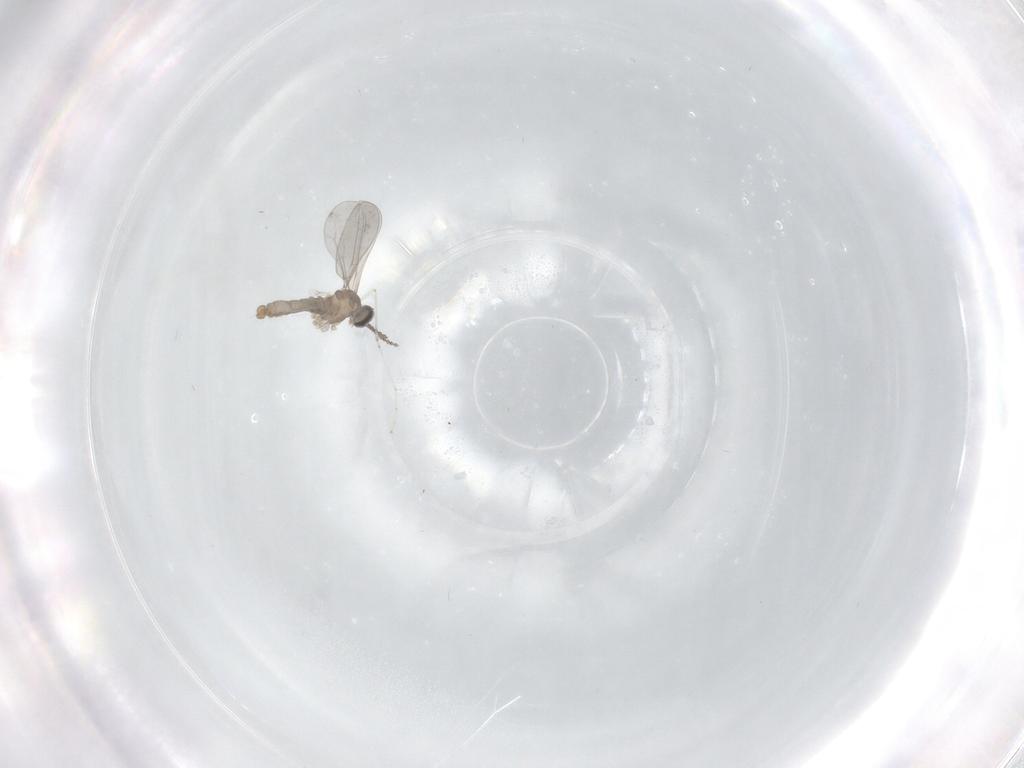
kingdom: Animalia
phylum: Arthropoda
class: Insecta
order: Diptera
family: Cecidomyiidae
